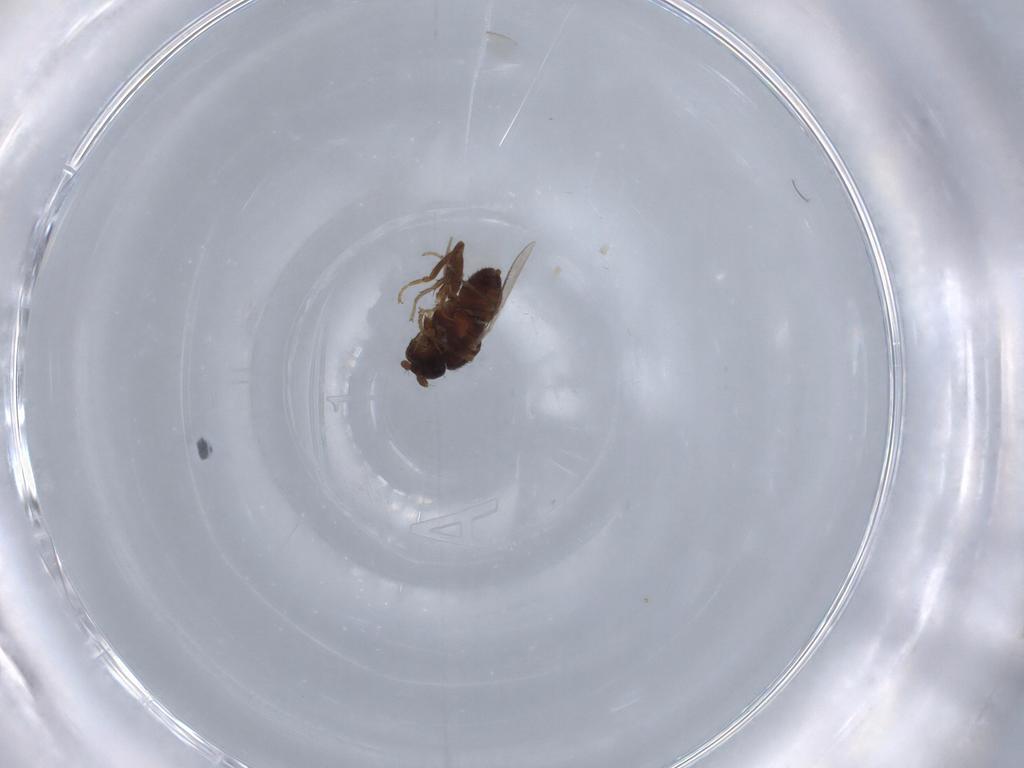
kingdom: Animalia
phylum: Arthropoda
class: Insecta
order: Diptera
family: Sphaeroceridae
